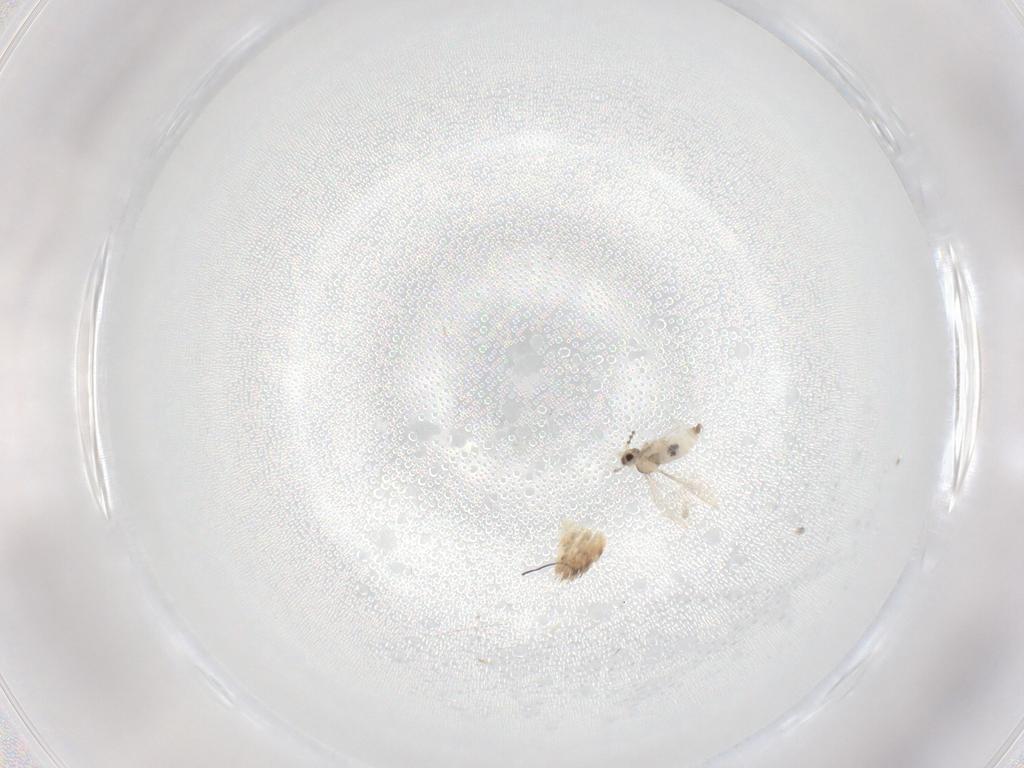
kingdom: Animalia
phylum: Arthropoda
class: Insecta
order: Diptera
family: Cecidomyiidae
